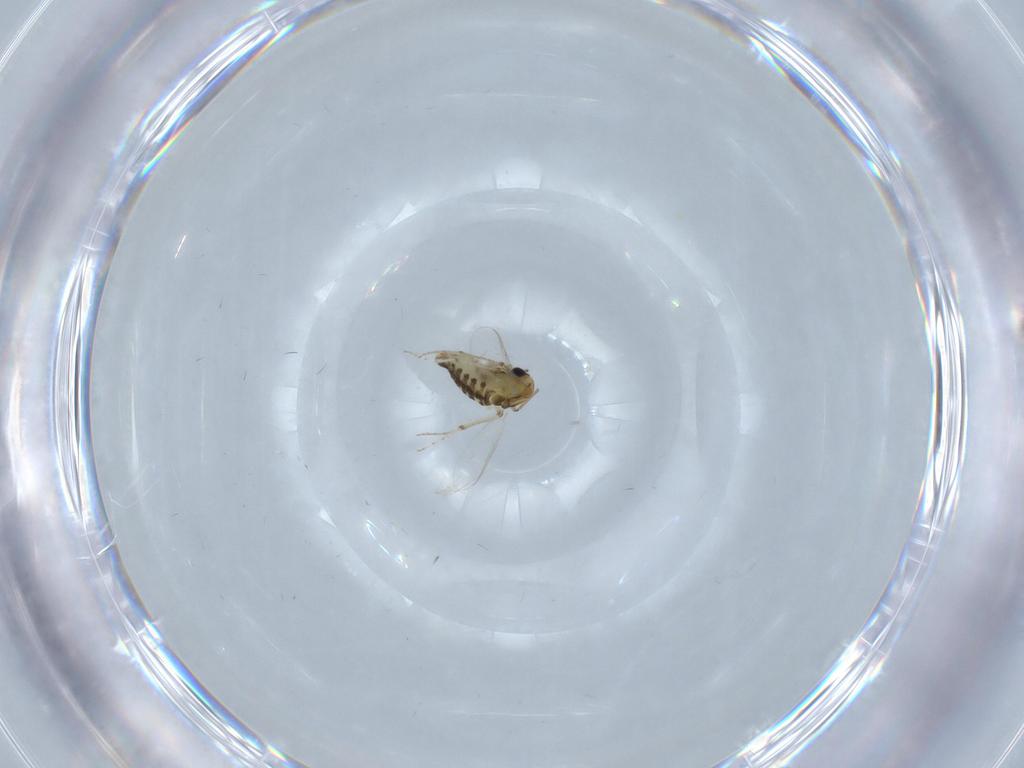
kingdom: Animalia
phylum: Arthropoda
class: Insecta
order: Diptera
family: Chironomidae
